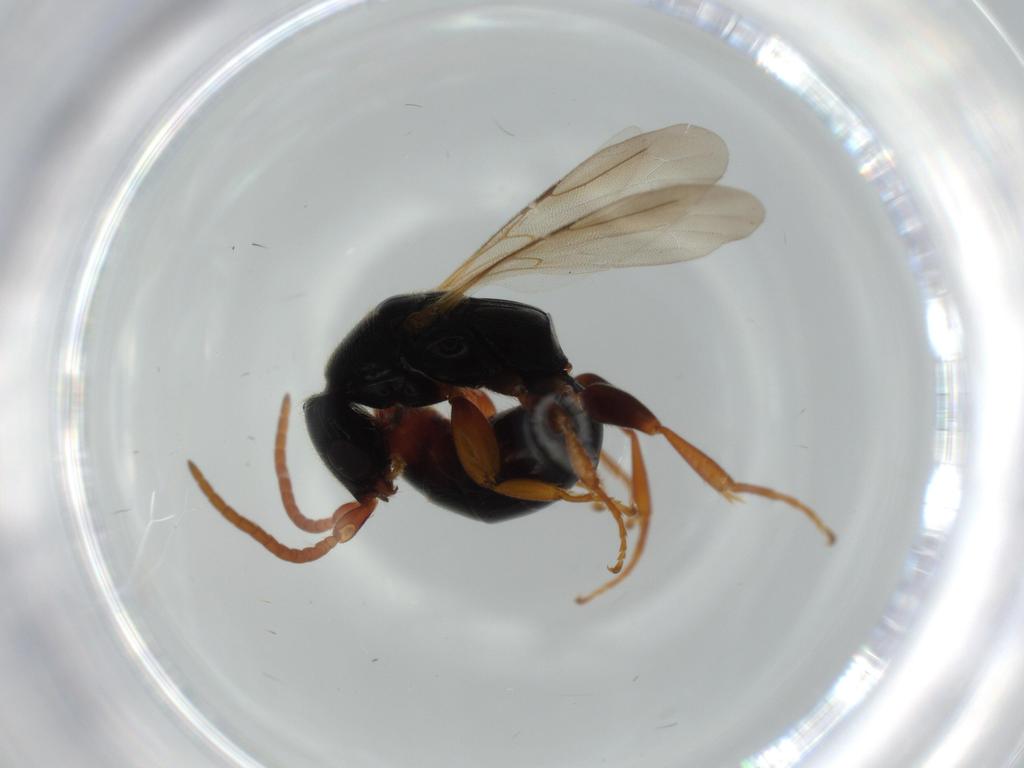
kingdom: Animalia
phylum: Arthropoda
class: Insecta
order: Hymenoptera
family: Bethylidae
